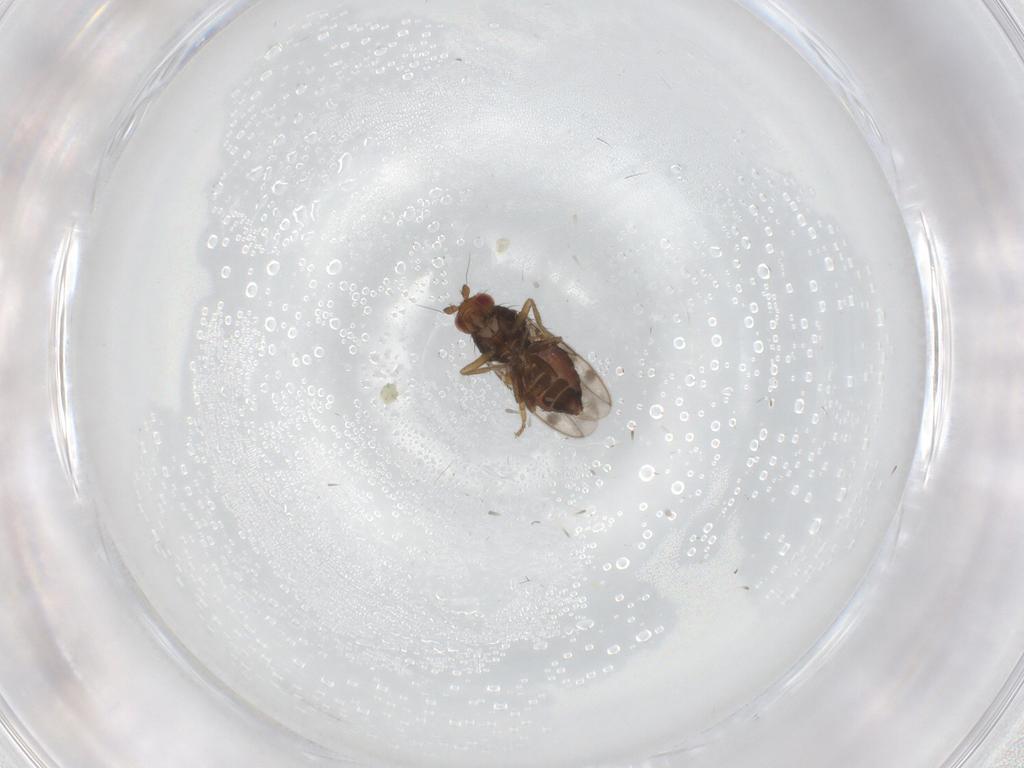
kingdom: Animalia
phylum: Arthropoda
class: Insecta
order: Diptera
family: Sphaeroceridae
